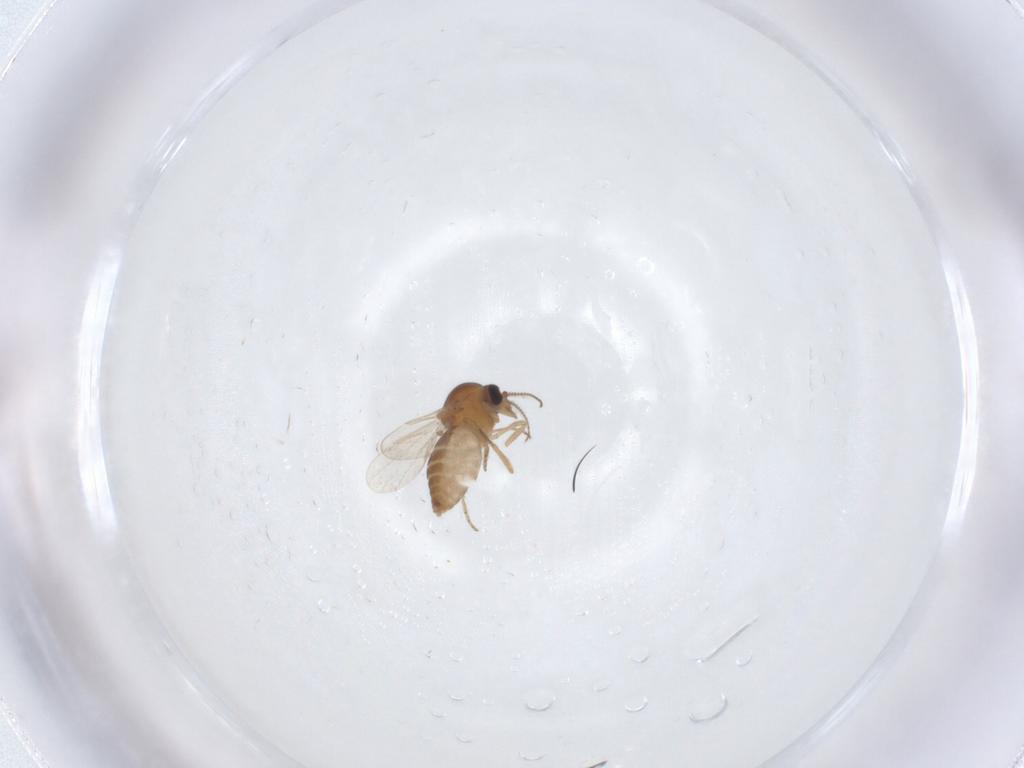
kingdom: Animalia
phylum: Arthropoda
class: Insecta
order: Diptera
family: Ceratopogonidae
